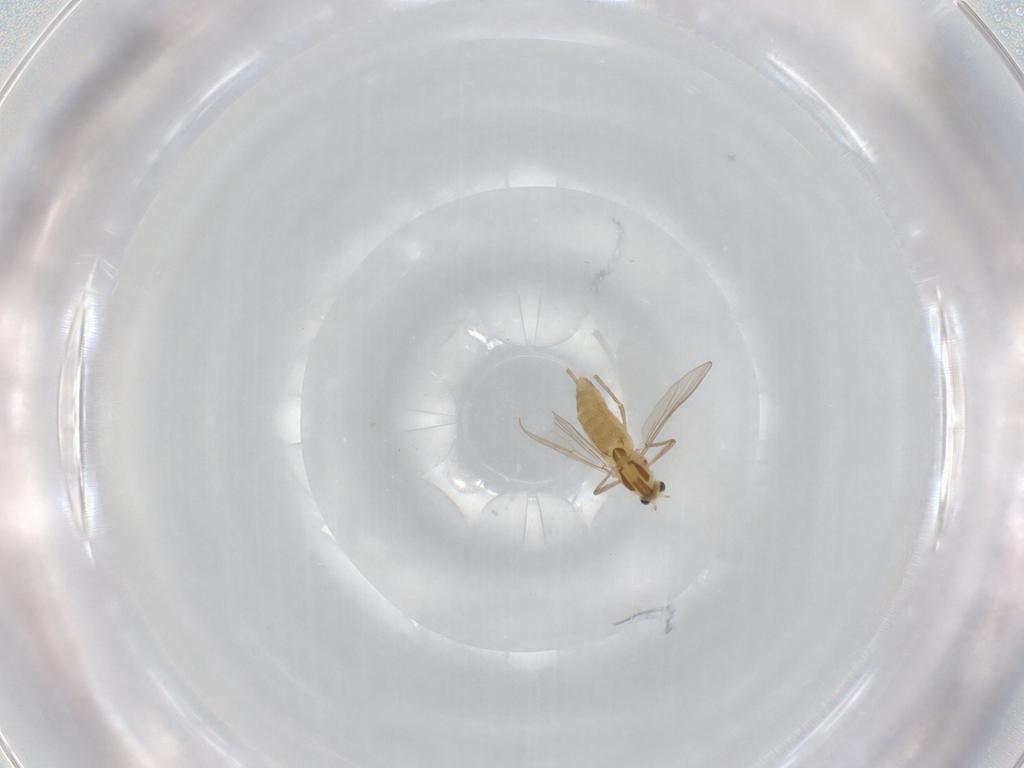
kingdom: Animalia
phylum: Arthropoda
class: Insecta
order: Diptera
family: Chironomidae
